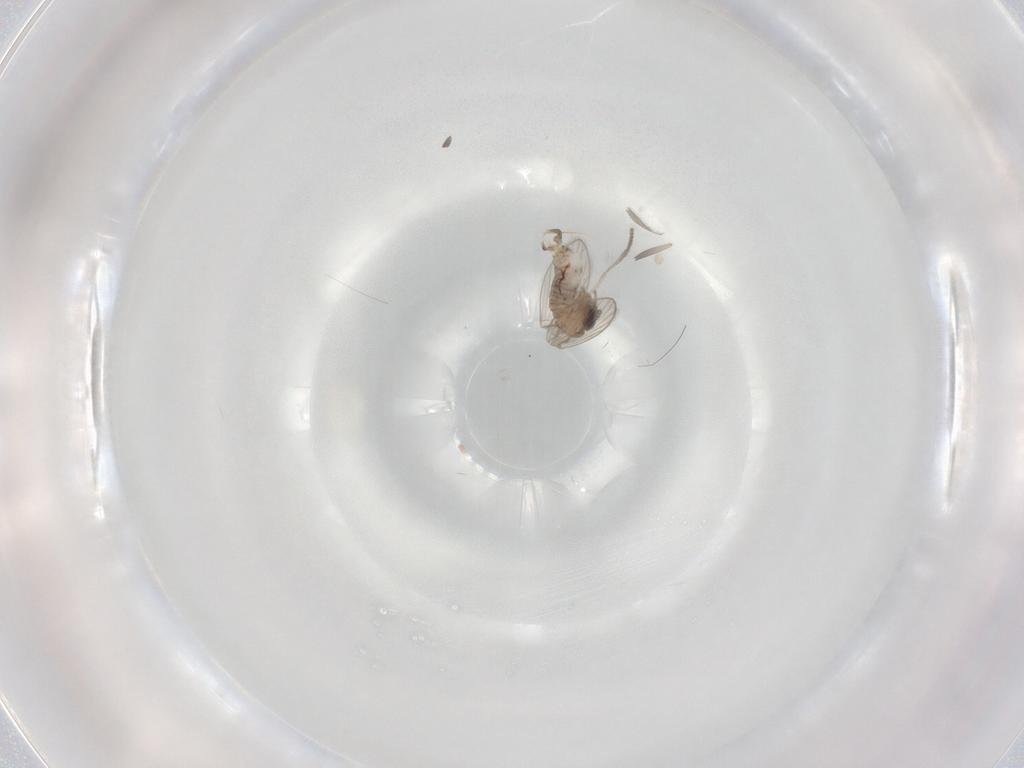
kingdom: Animalia
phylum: Arthropoda
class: Insecta
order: Diptera
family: Psychodidae
